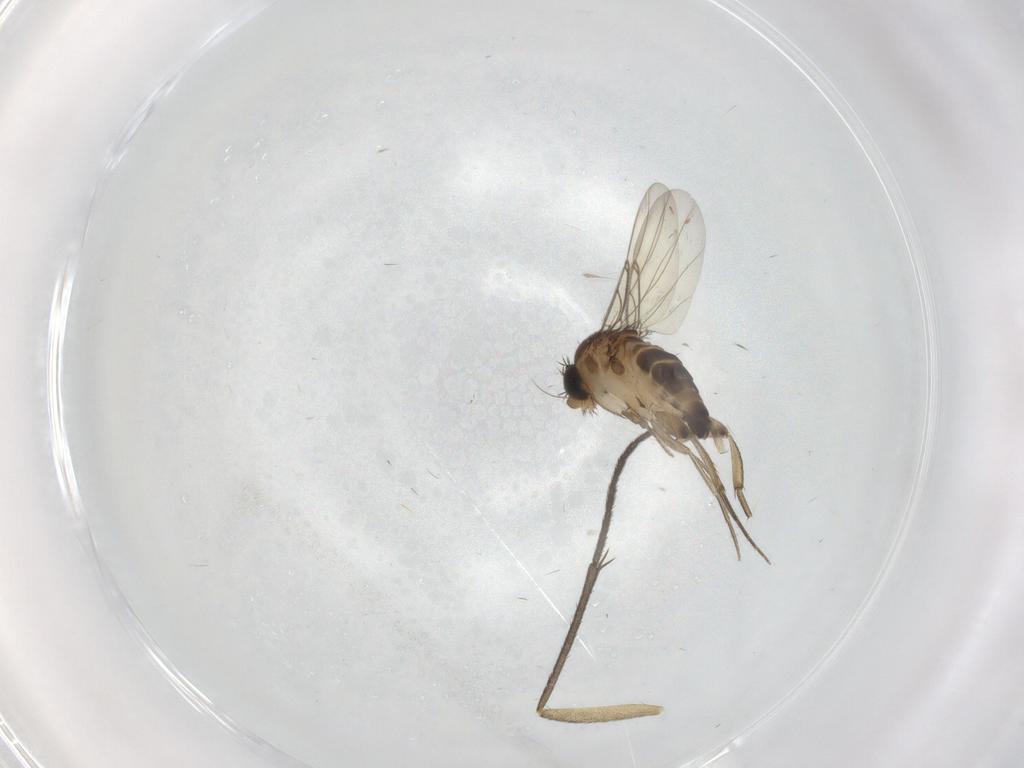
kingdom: Animalia
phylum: Arthropoda
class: Insecta
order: Diptera
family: Phoridae
